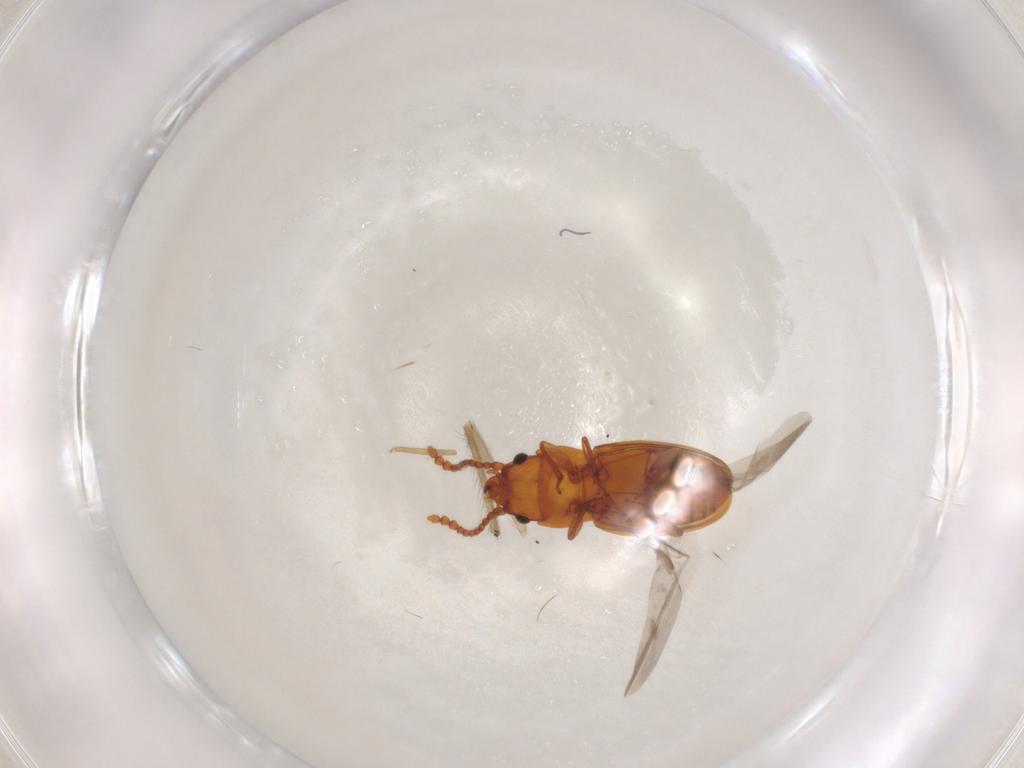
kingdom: Animalia
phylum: Arthropoda
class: Insecta
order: Coleoptera
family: Laemophloeidae
